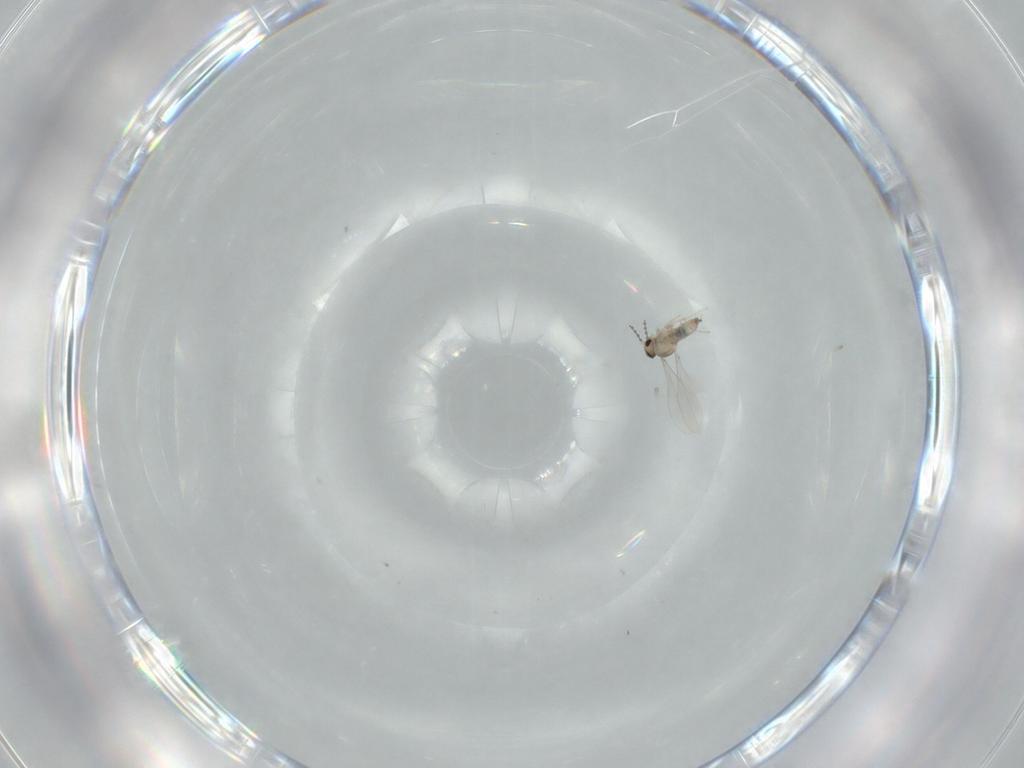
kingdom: Animalia
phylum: Arthropoda
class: Insecta
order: Diptera
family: Cecidomyiidae
